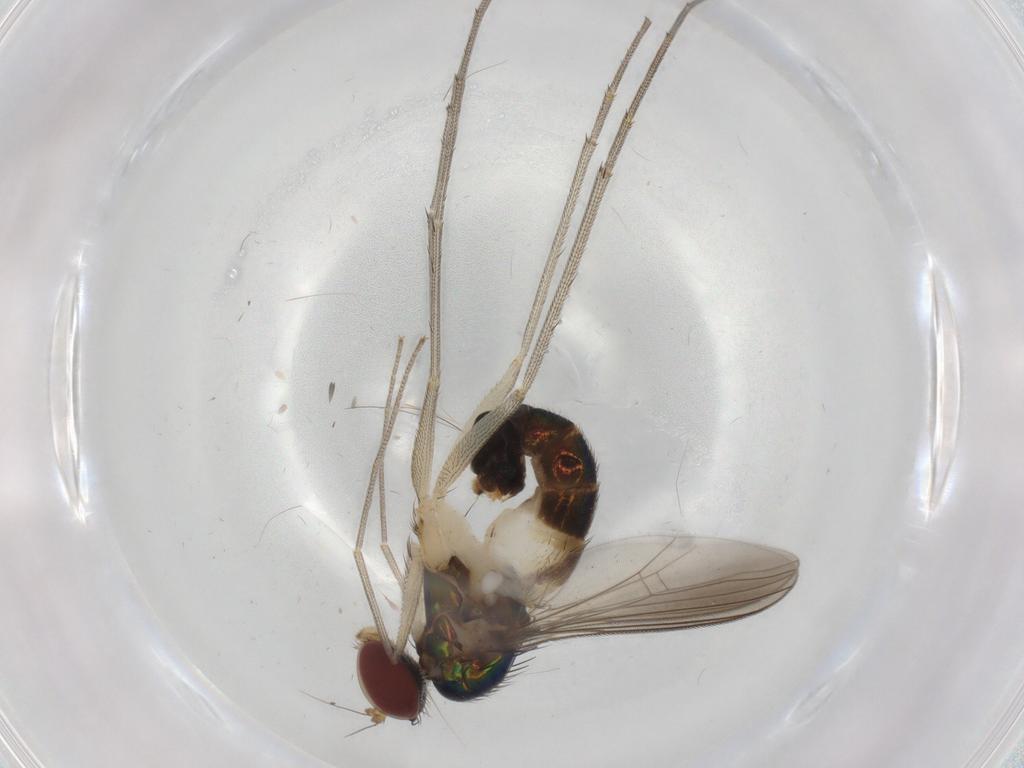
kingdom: Animalia
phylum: Arthropoda
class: Insecta
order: Diptera
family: Dolichopodidae
